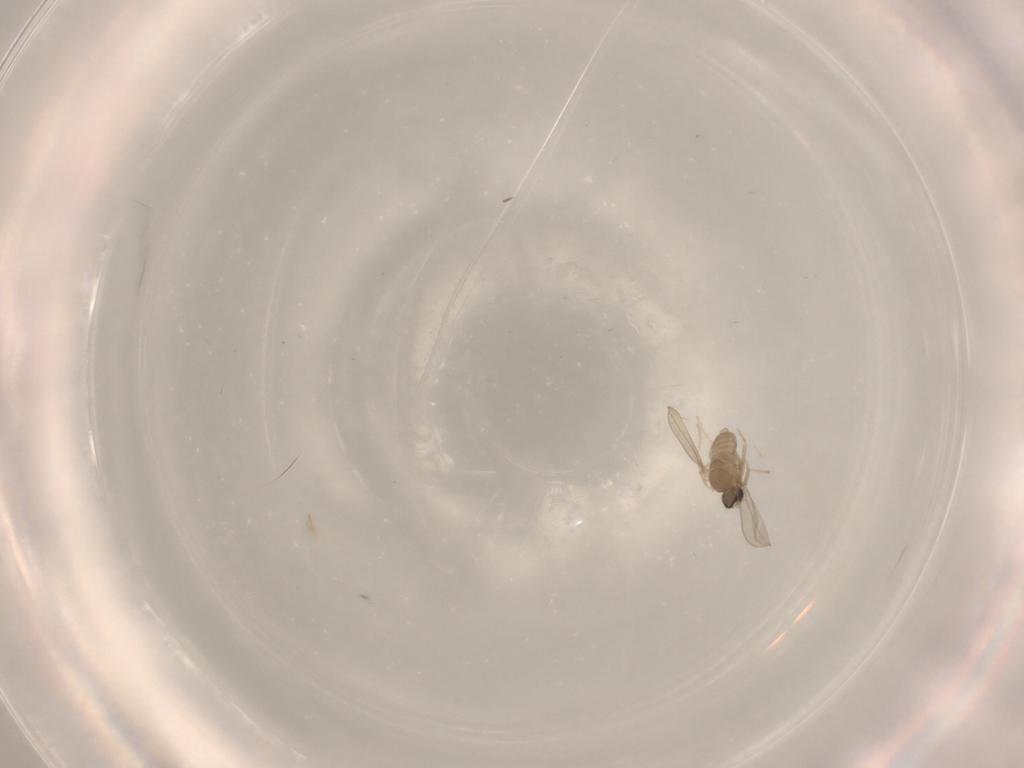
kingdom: Animalia
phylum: Arthropoda
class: Insecta
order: Diptera
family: Cecidomyiidae
